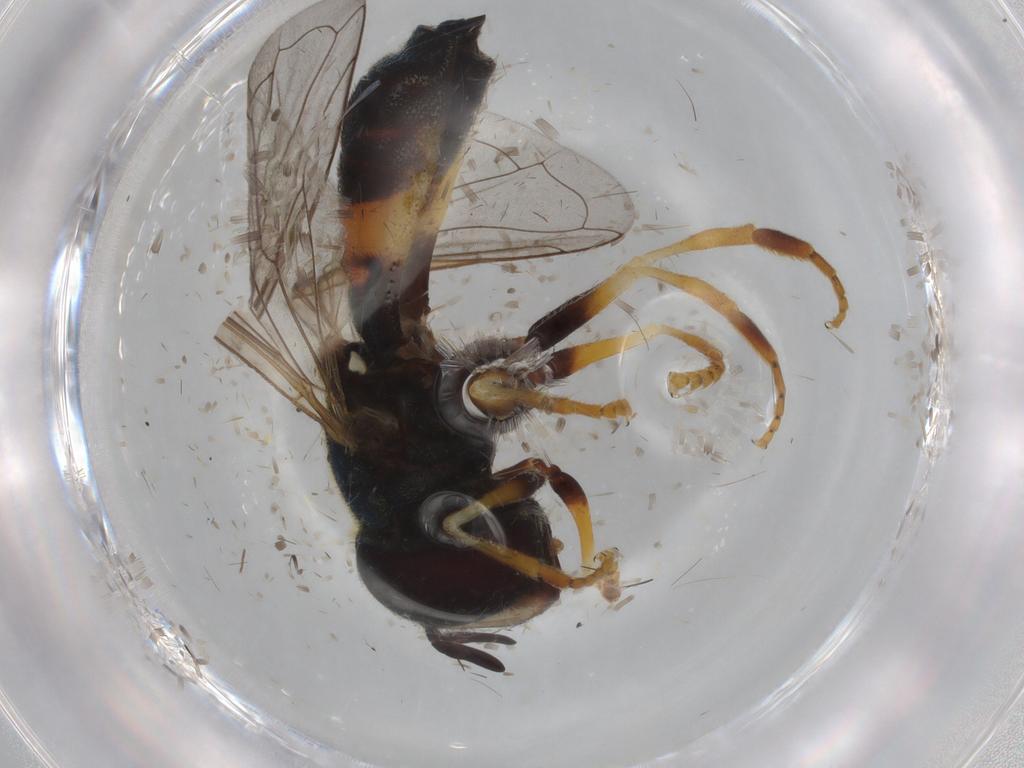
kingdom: Animalia
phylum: Arthropoda
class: Insecta
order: Diptera
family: Syrphidae
